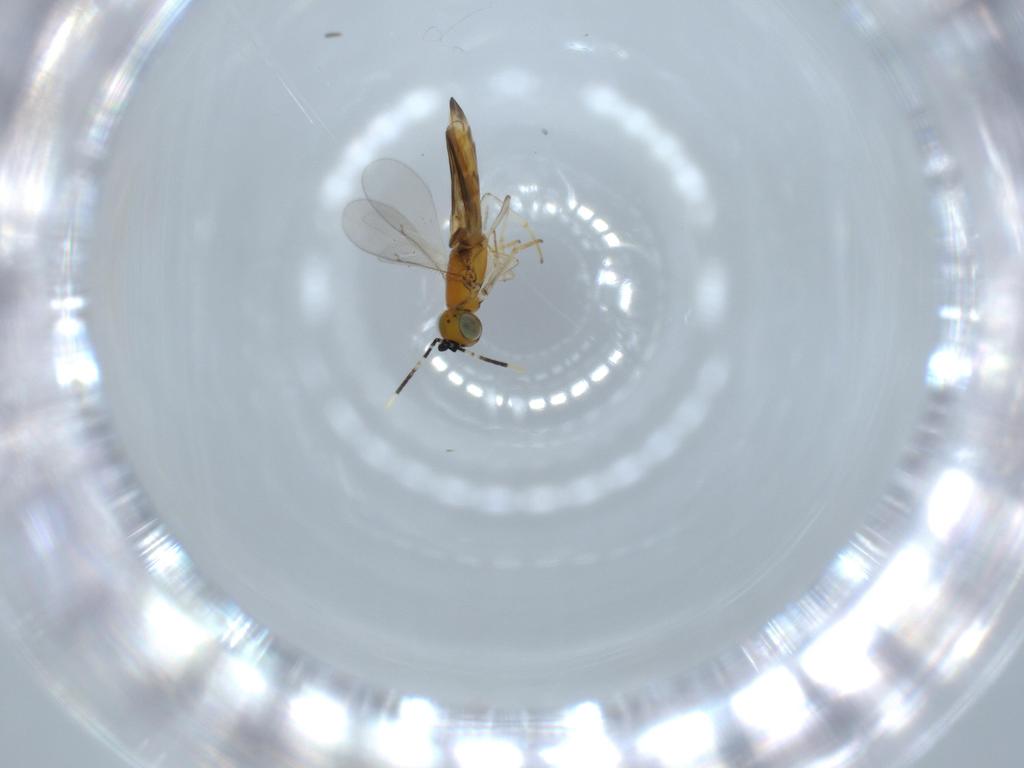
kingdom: Animalia
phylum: Arthropoda
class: Insecta
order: Hymenoptera
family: Encyrtidae
